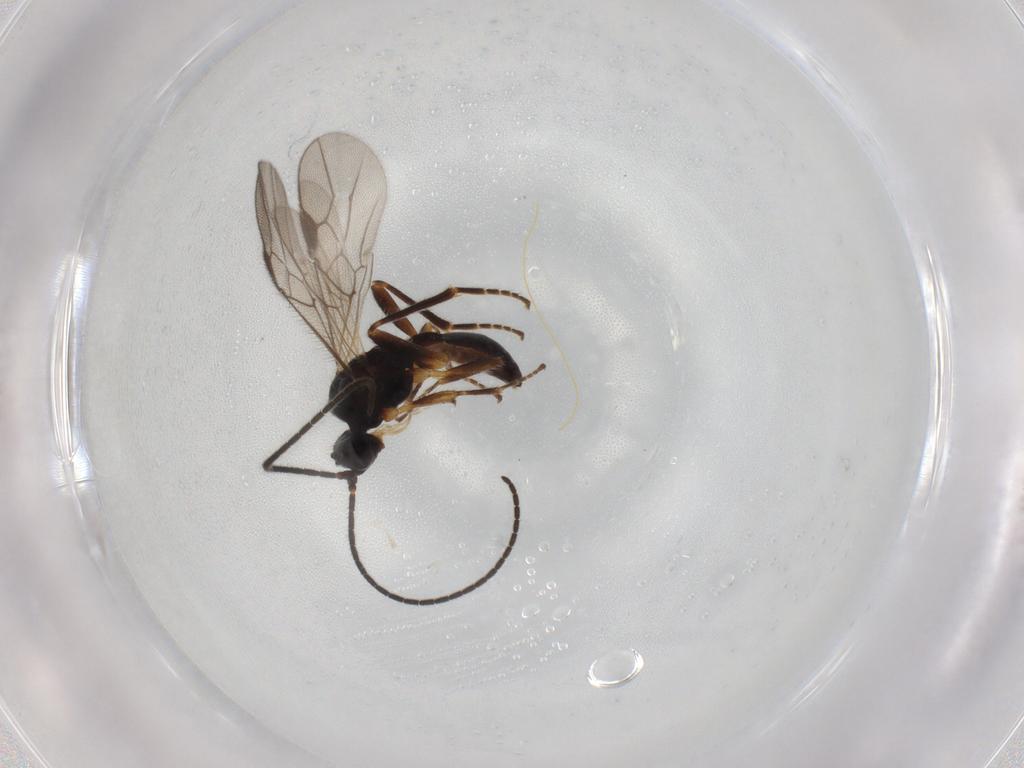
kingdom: Animalia
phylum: Arthropoda
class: Insecta
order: Hymenoptera
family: Braconidae
